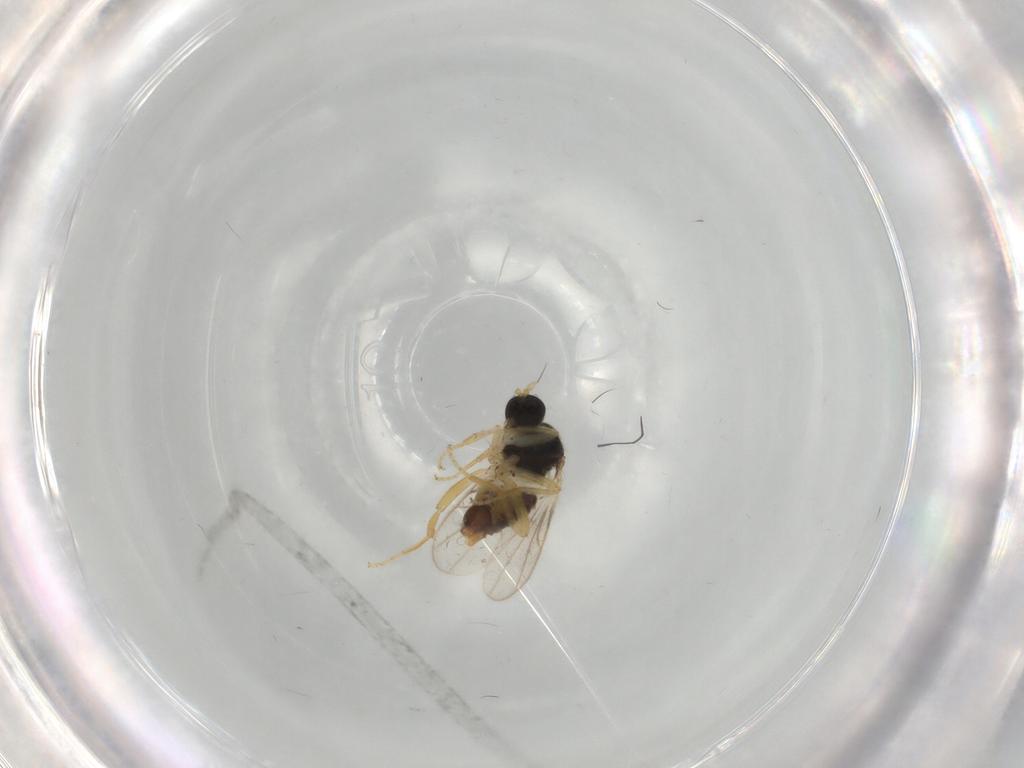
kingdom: Animalia
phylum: Arthropoda
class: Insecta
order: Diptera
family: Hybotidae
